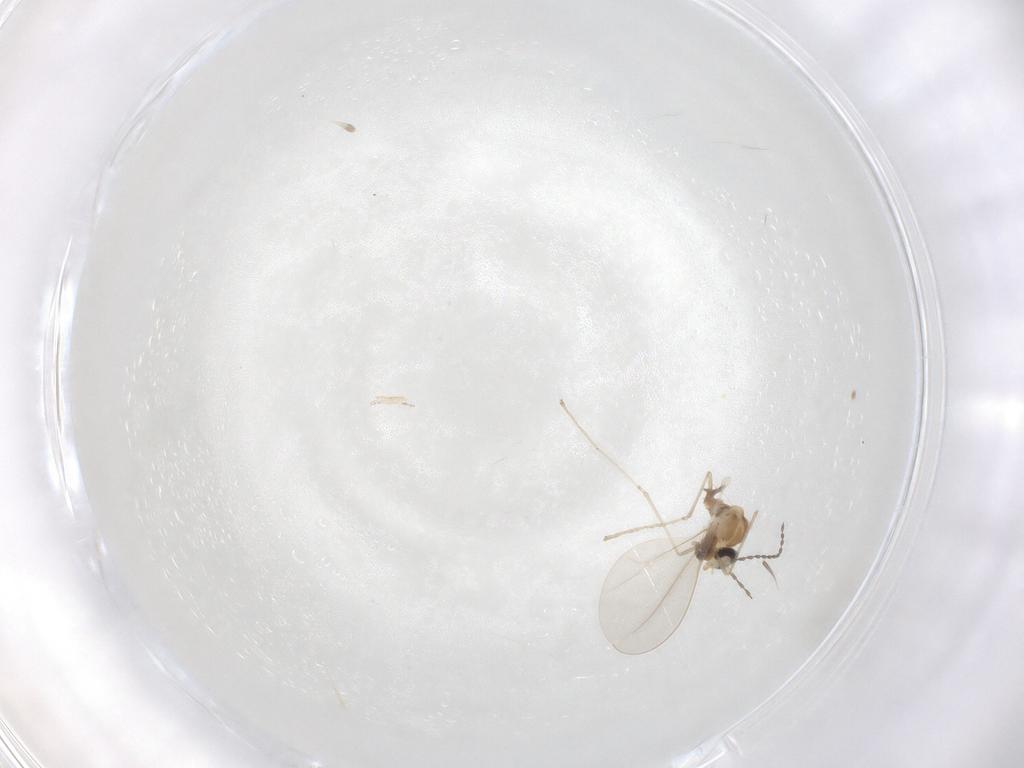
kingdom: Animalia
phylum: Arthropoda
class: Insecta
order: Diptera
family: Cecidomyiidae
